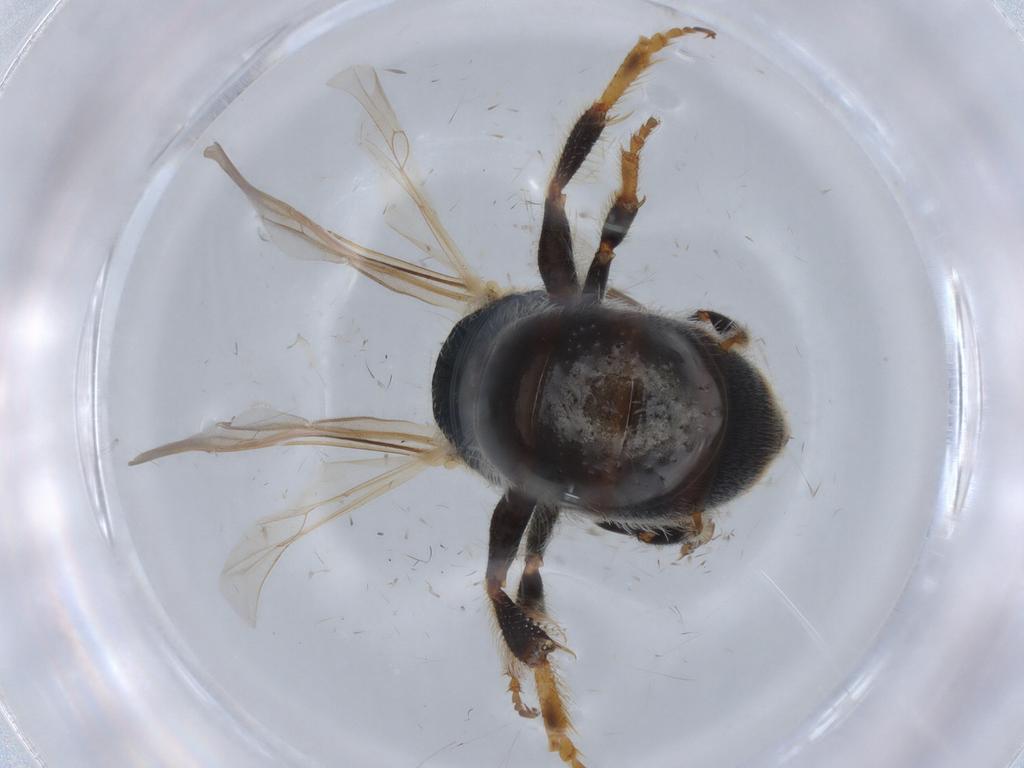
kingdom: Animalia
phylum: Arthropoda
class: Insecta
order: Hymenoptera
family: Halictidae
